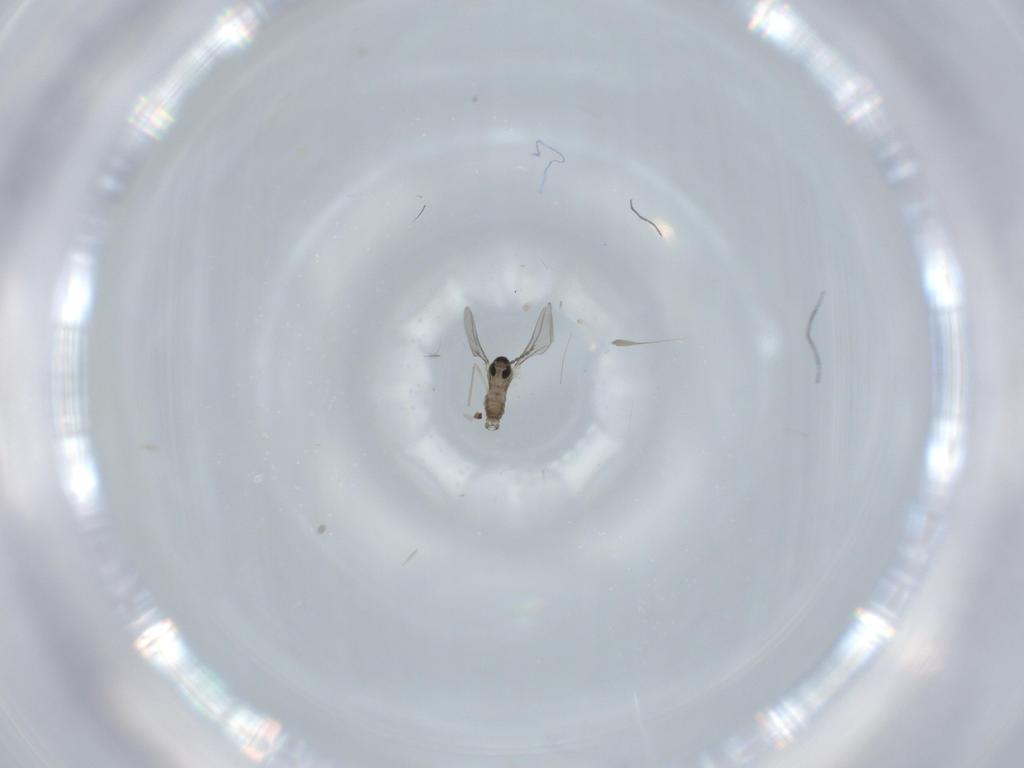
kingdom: Animalia
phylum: Arthropoda
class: Insecta
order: Diptera
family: Cecidomyiidae
